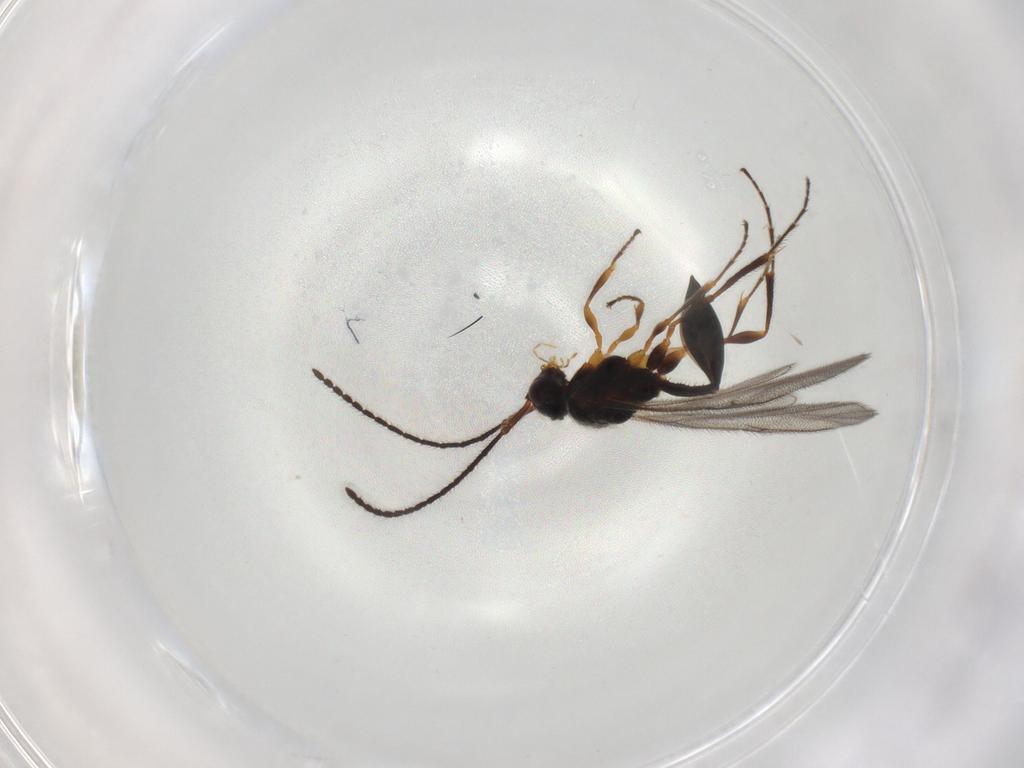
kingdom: Animalia
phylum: Arthropoda
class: Insecta
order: Hymenoptera
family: Diapriidae
